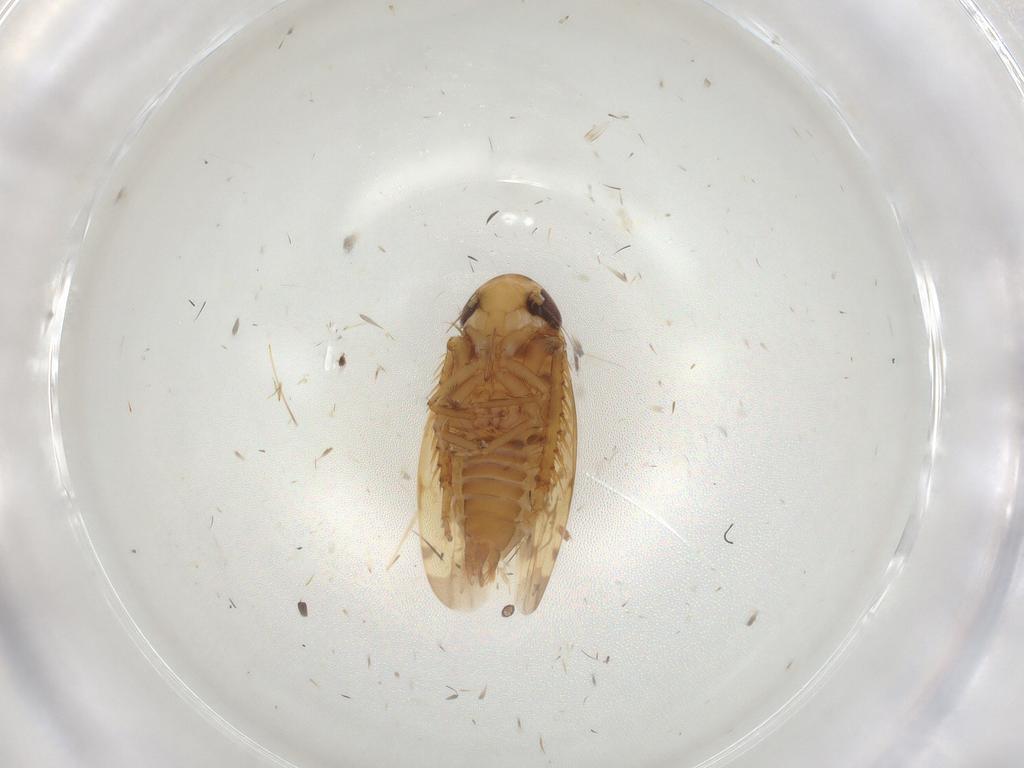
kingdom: Animalia
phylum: Arthropoda
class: Insecta
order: Hemiptera
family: Cicadellidae
